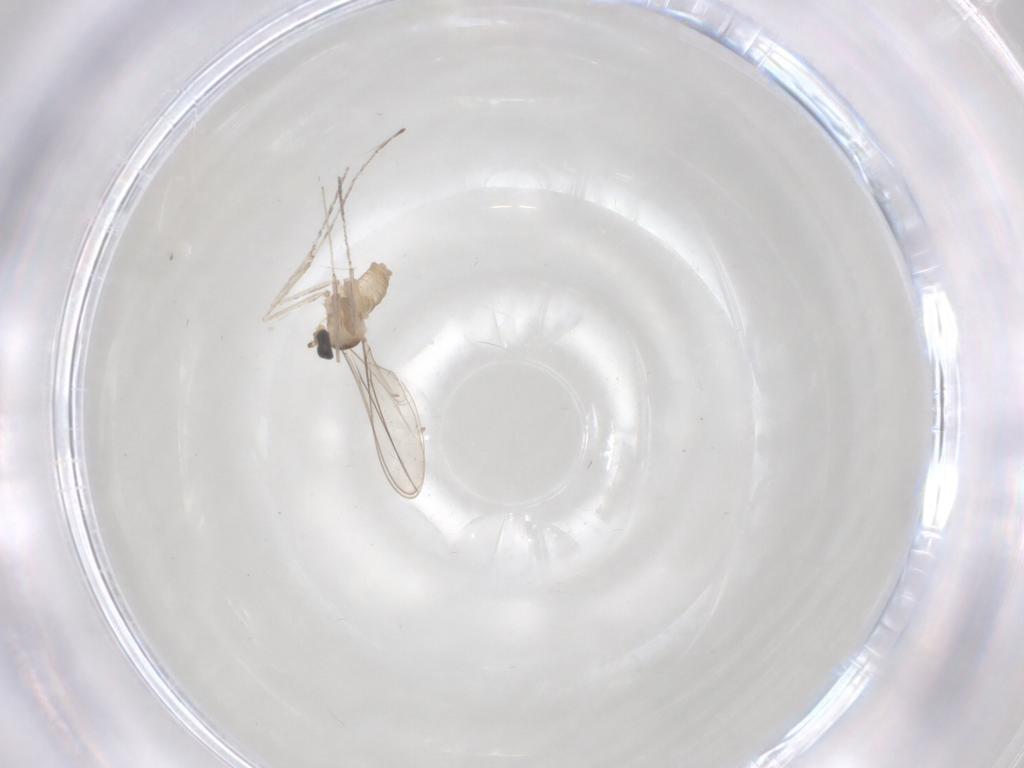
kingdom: Animalia
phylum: Arthropoda
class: Insecta
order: Diptera
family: Cecidomyiidae
